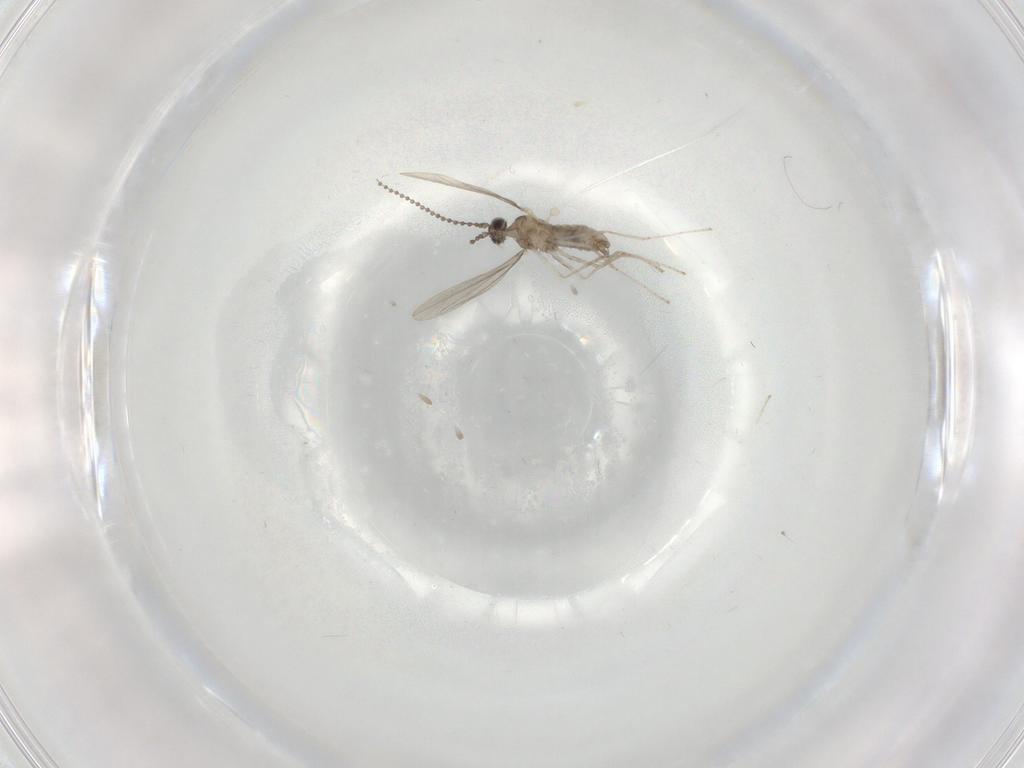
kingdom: Animalia
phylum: Arthropoda
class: Insecta
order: Diptera
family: Cecidomyiidae
